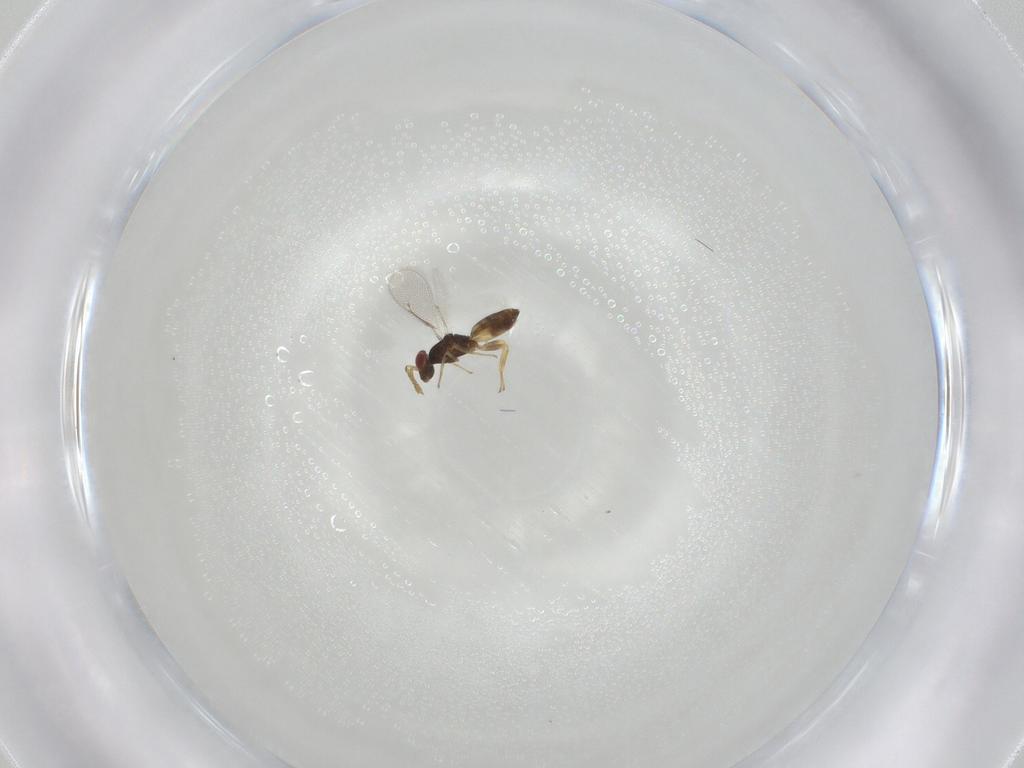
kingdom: Animalia
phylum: Arthropoda
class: Insecta
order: Hymenoptera
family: Eulophidae
